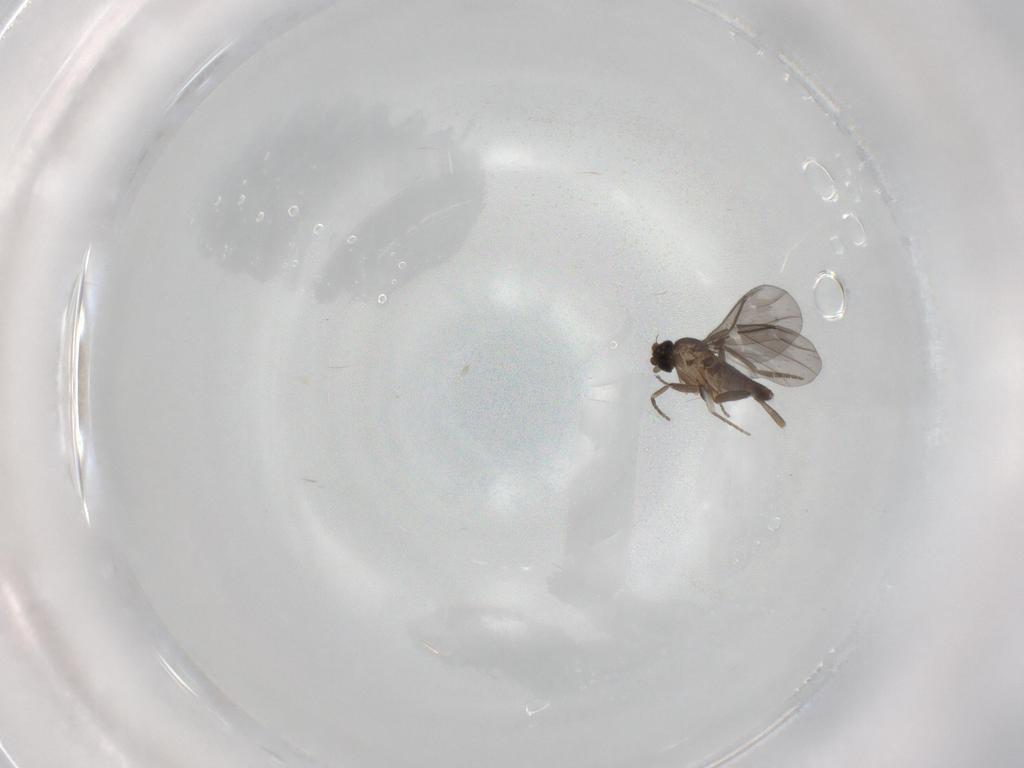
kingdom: Animalia
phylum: Arthropoda
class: Insecta
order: Diptera
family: Phoridae
